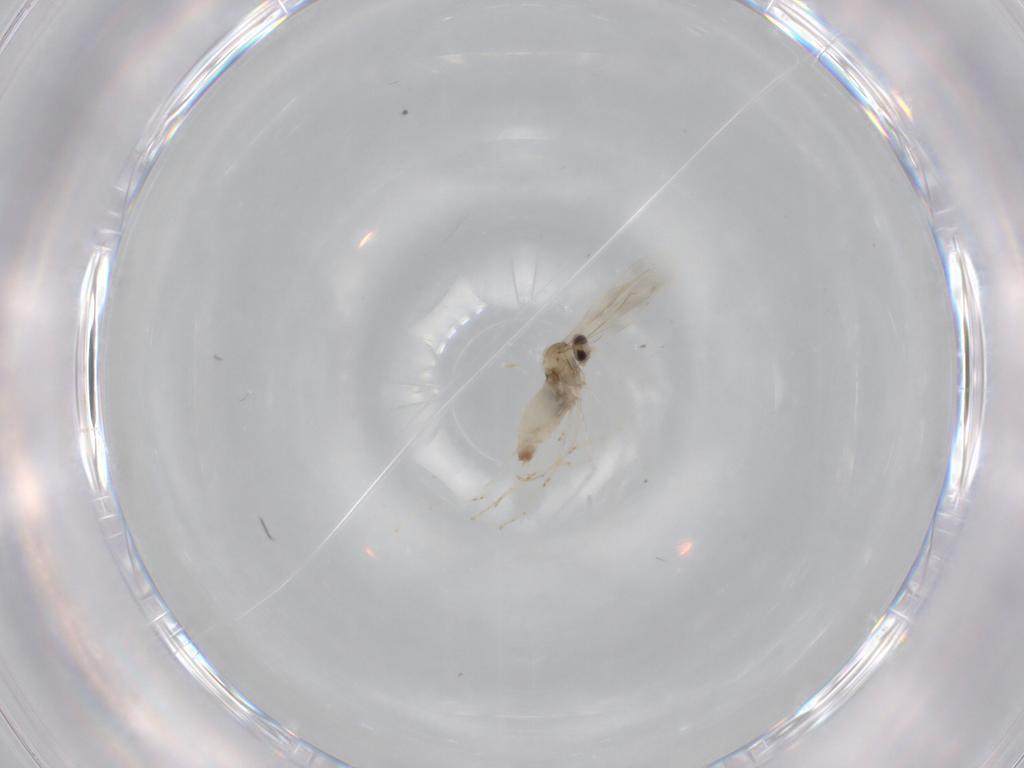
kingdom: Animalia
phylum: Arthropoda
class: Insecta
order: Diptera
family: Cecidomyiidae
